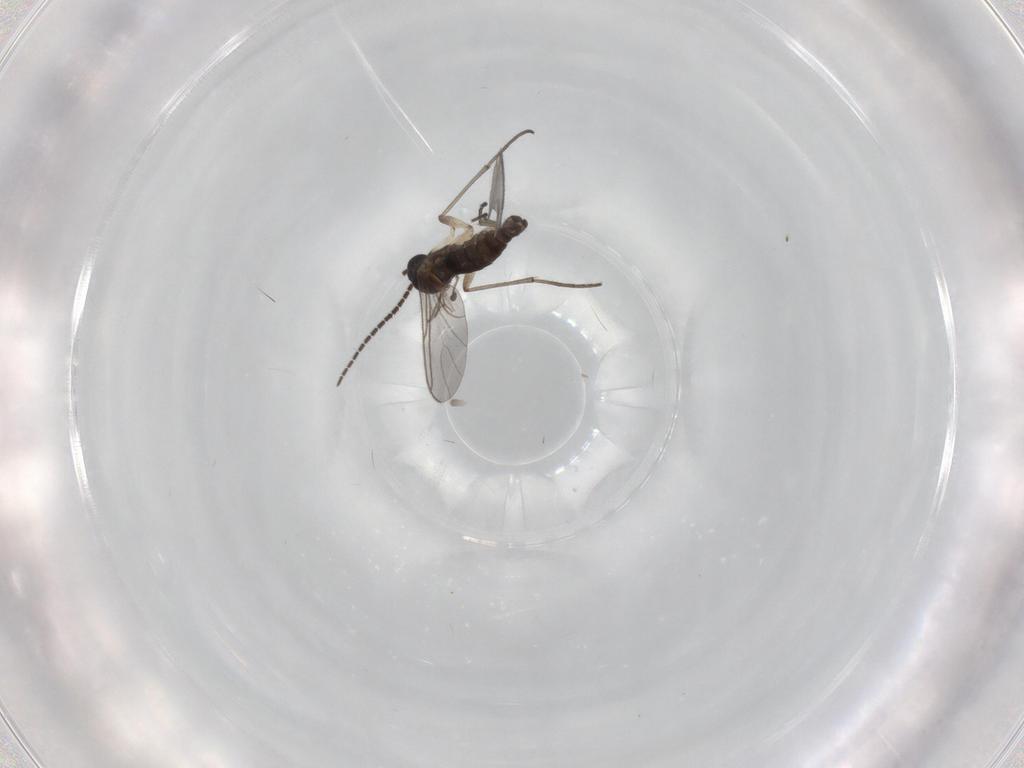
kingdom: Animalia
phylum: Arthropoda
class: Insecta
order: Diptera
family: Sciaridae
